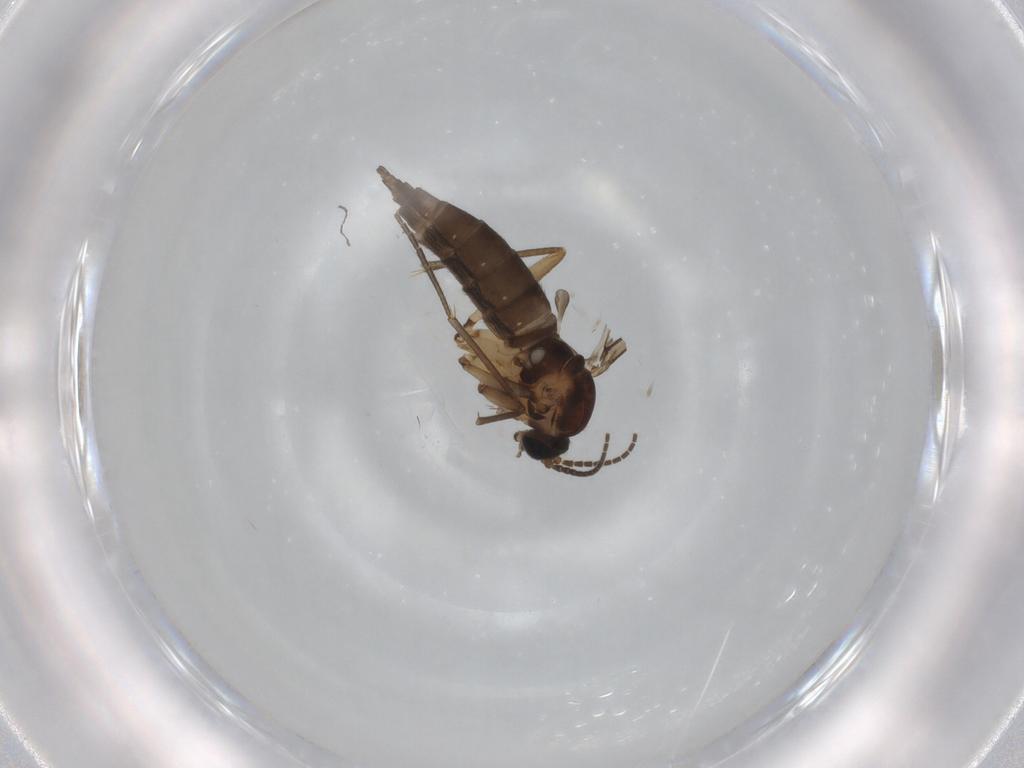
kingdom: Animalia
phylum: Arthropoda
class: Insecta
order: Diptera
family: Sciaridae
